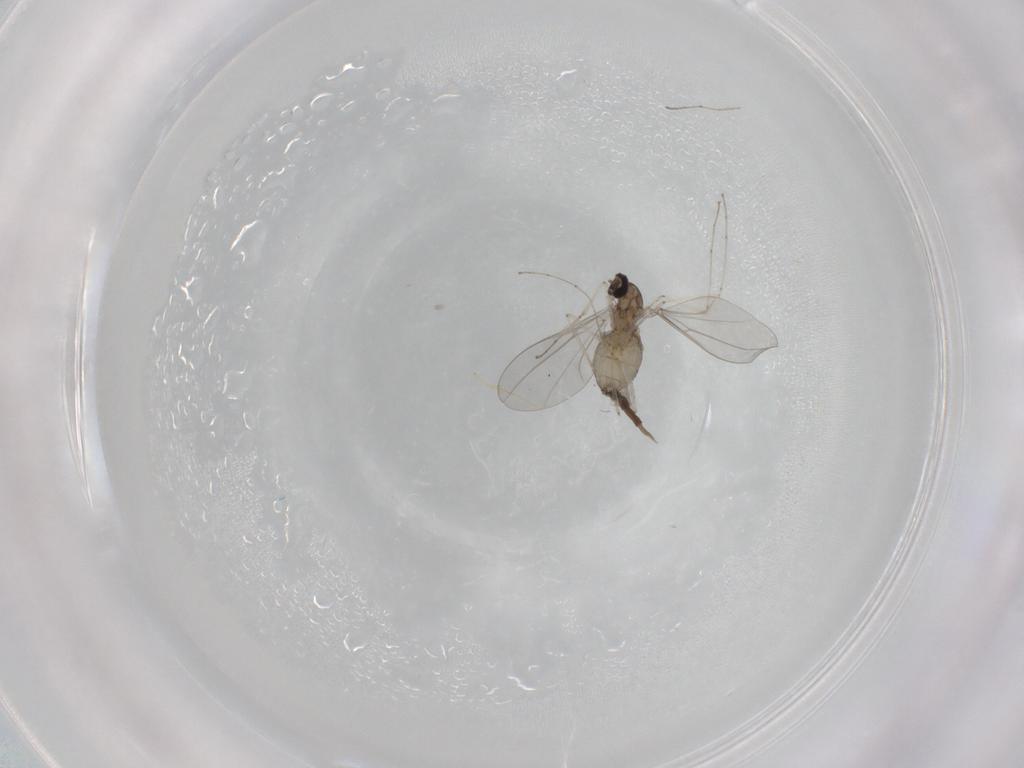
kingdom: Animalia
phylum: Arthropoda
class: Insecta
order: Diptera
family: Cecidomyiidae
